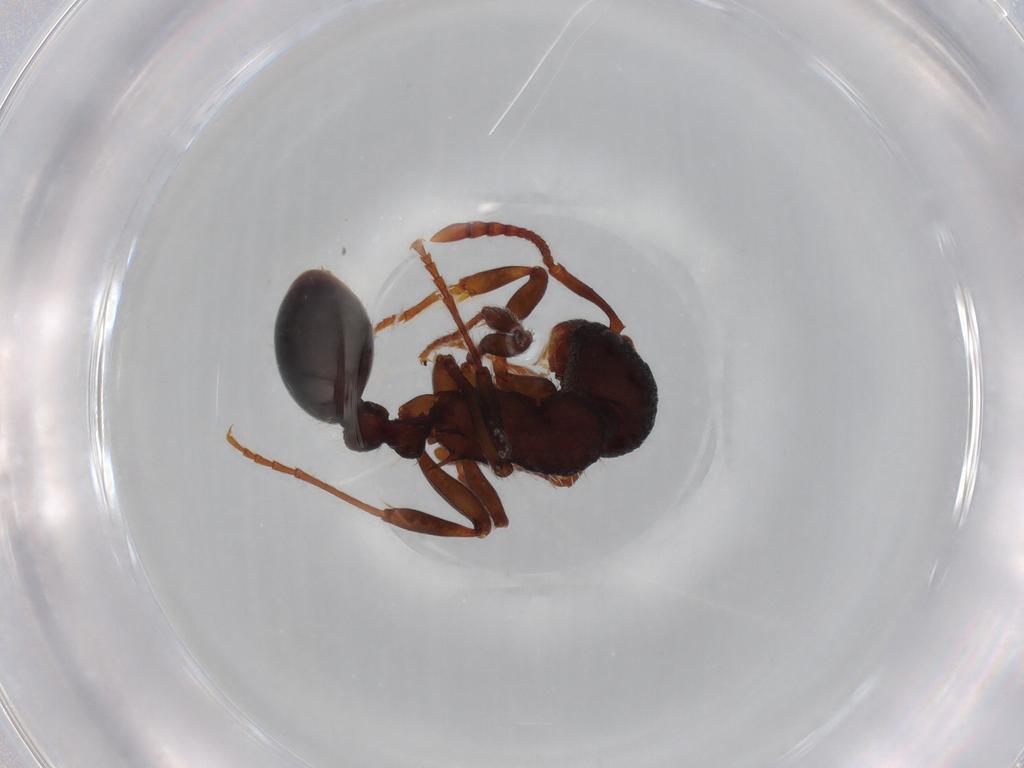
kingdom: Animalia
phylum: Arthropoda
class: Insecta
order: Hymenoptera
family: Formicidae
